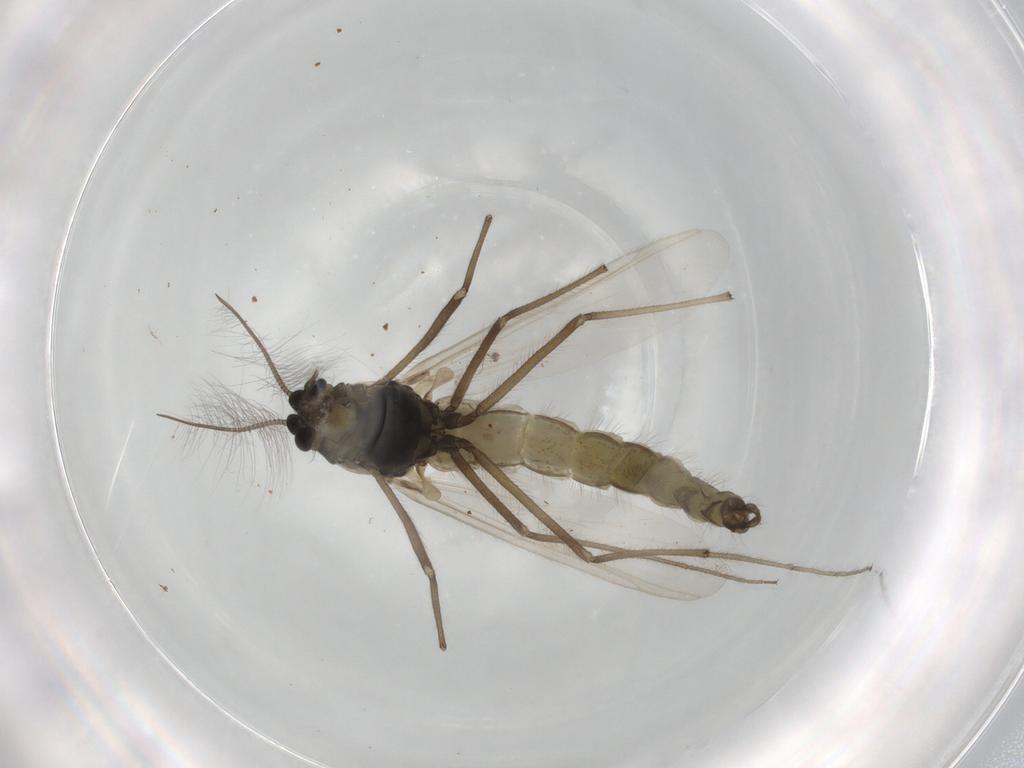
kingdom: Animalia
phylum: Arthropoda
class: Insecta
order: Diptera
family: Chironomidae
